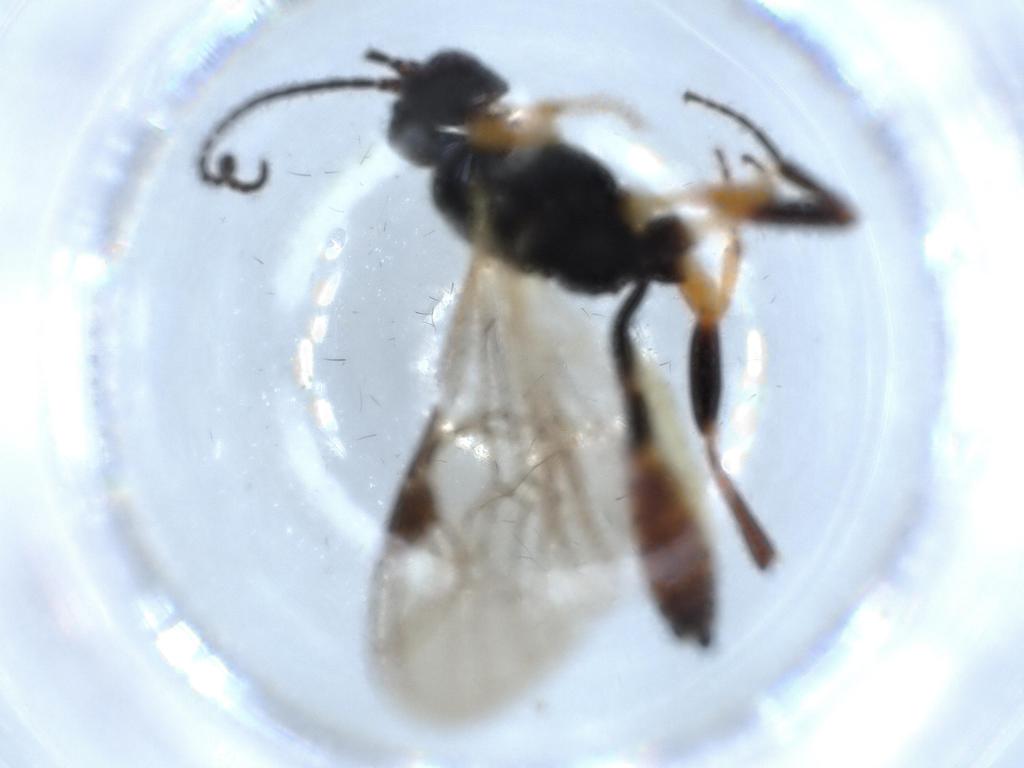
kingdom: Animalia
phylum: Arthropoda
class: Insecta
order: Hymenoptera
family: Ichneumonidae
